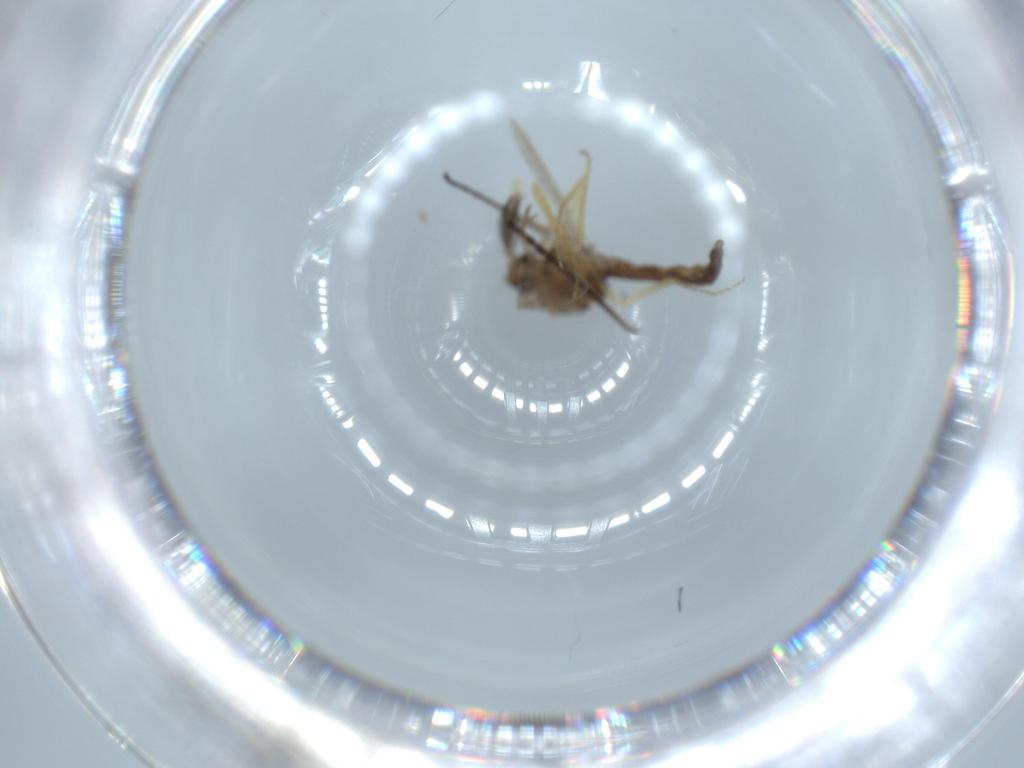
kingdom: Animalia
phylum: Arthropoda
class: Insecta
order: Diptera
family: Ceratopogonidae
